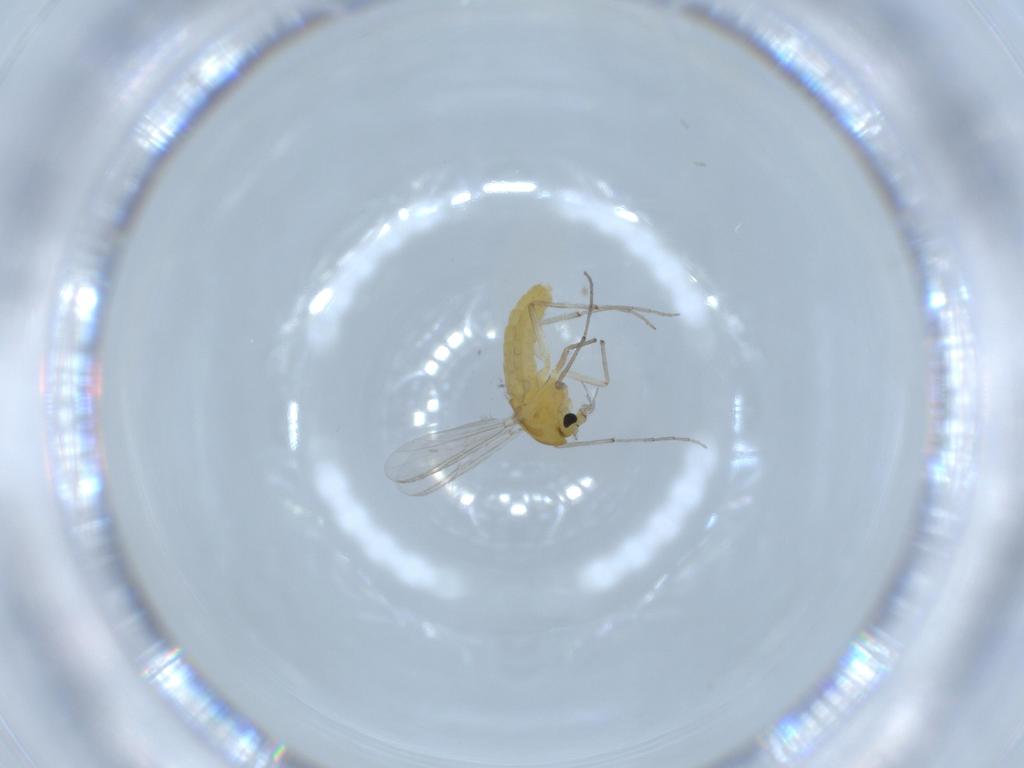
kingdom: Animalia
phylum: Arthropoda
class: Insecta
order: Diptera
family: Chironomidae
